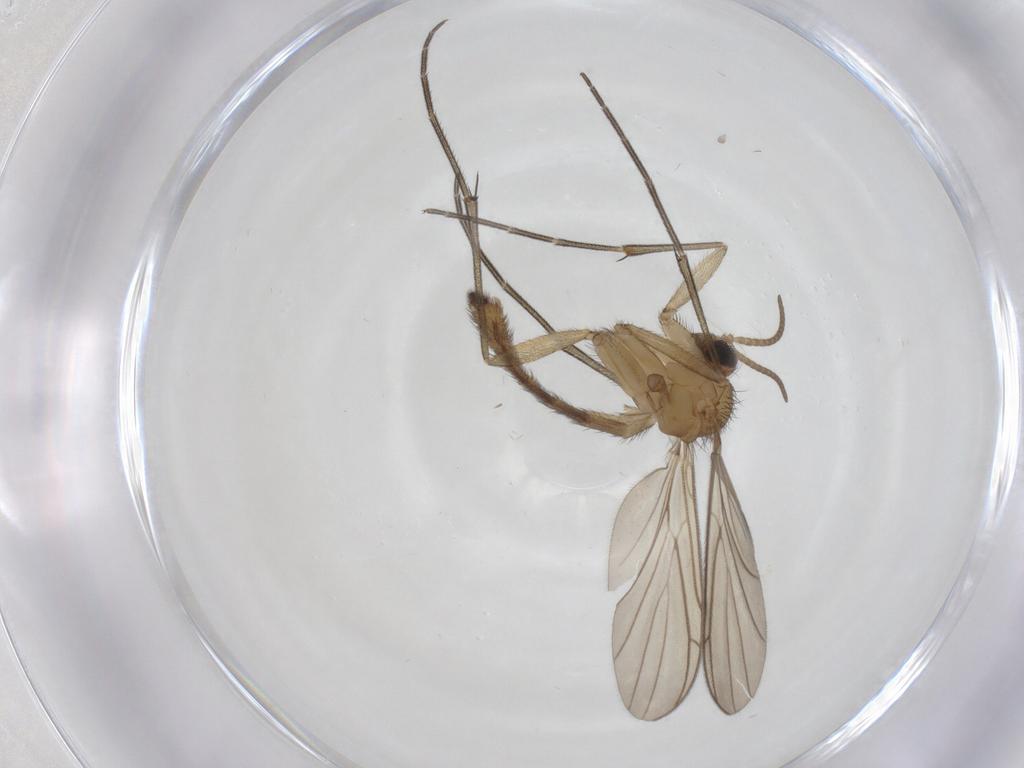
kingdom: Animalia
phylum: Arthropoda
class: Insecta
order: Diptera
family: Keroplatidae
